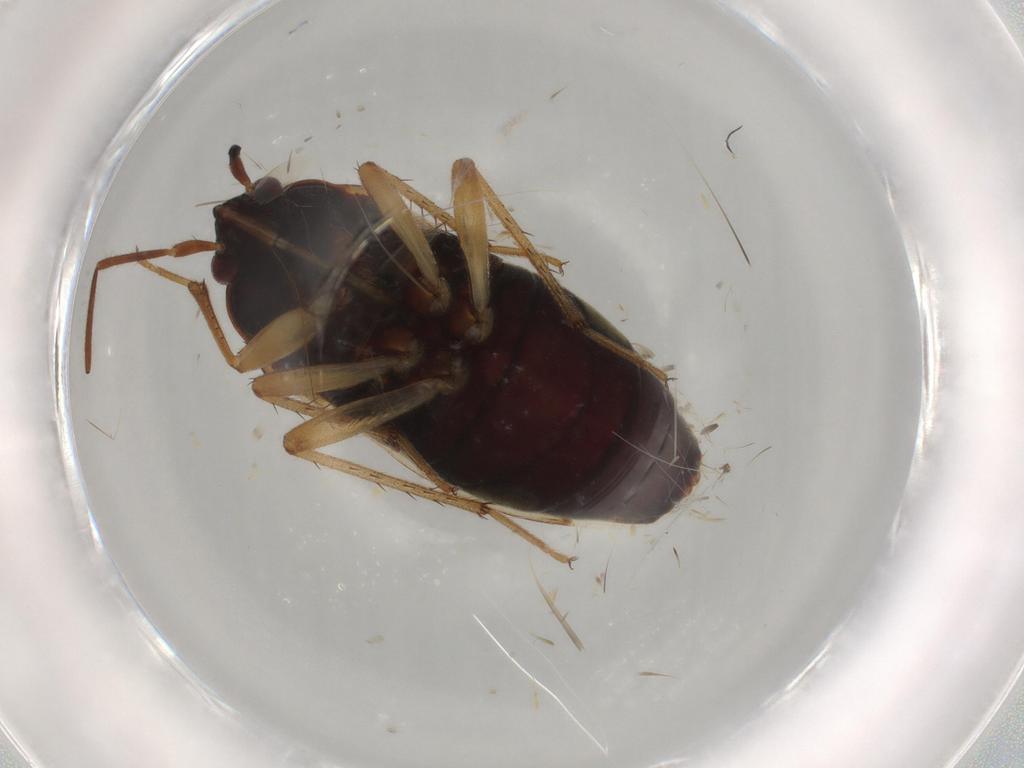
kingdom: Animalia
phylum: Arthropoda
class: Insecta
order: Hemiptera
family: Rhyparochromidae
